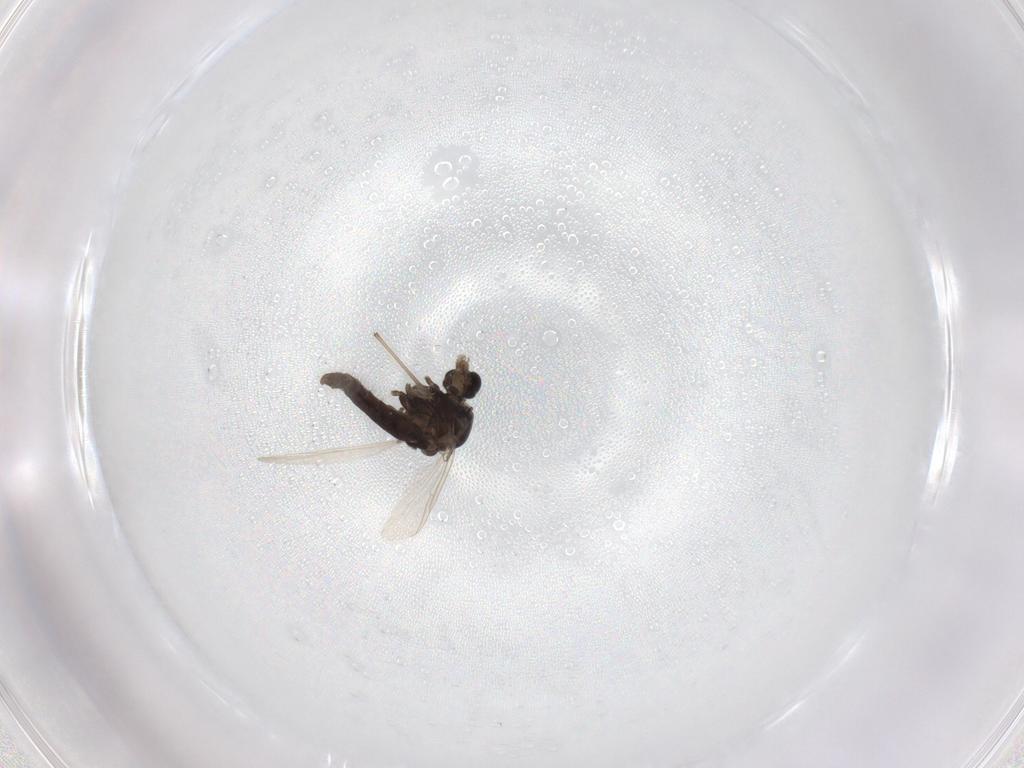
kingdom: Animalia
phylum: Arthropoda
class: Insecta
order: Diptera
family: Chironomidae
